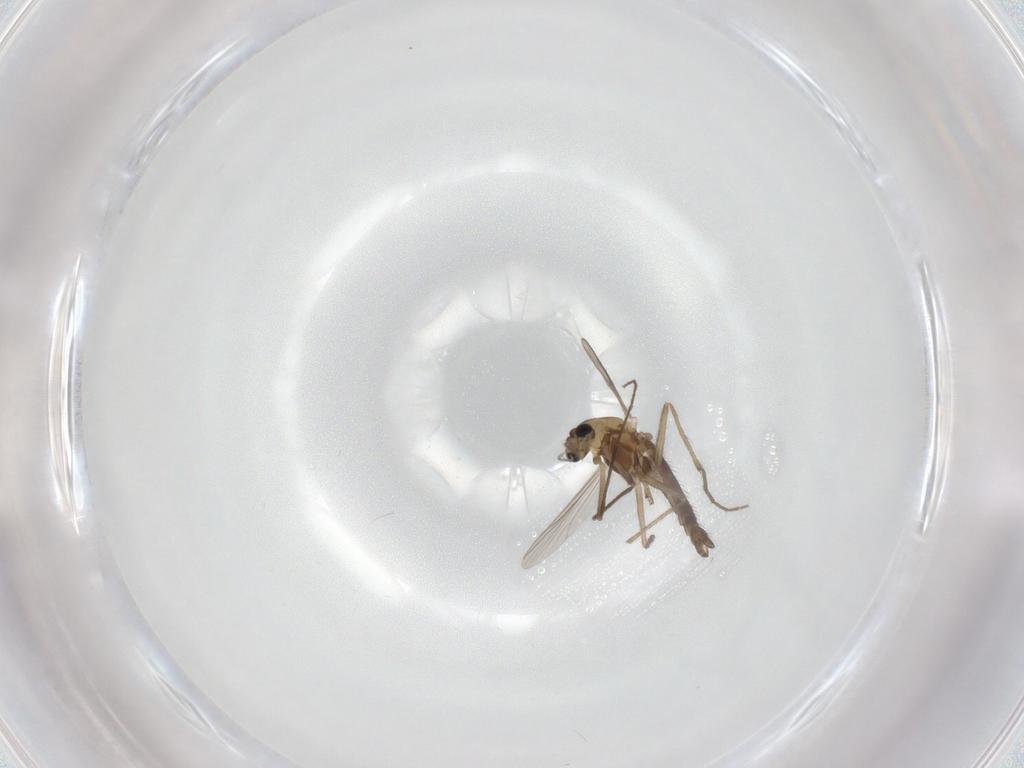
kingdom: Animalia
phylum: Arthropoda
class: Insecta
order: Diptera
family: Chironomidae
